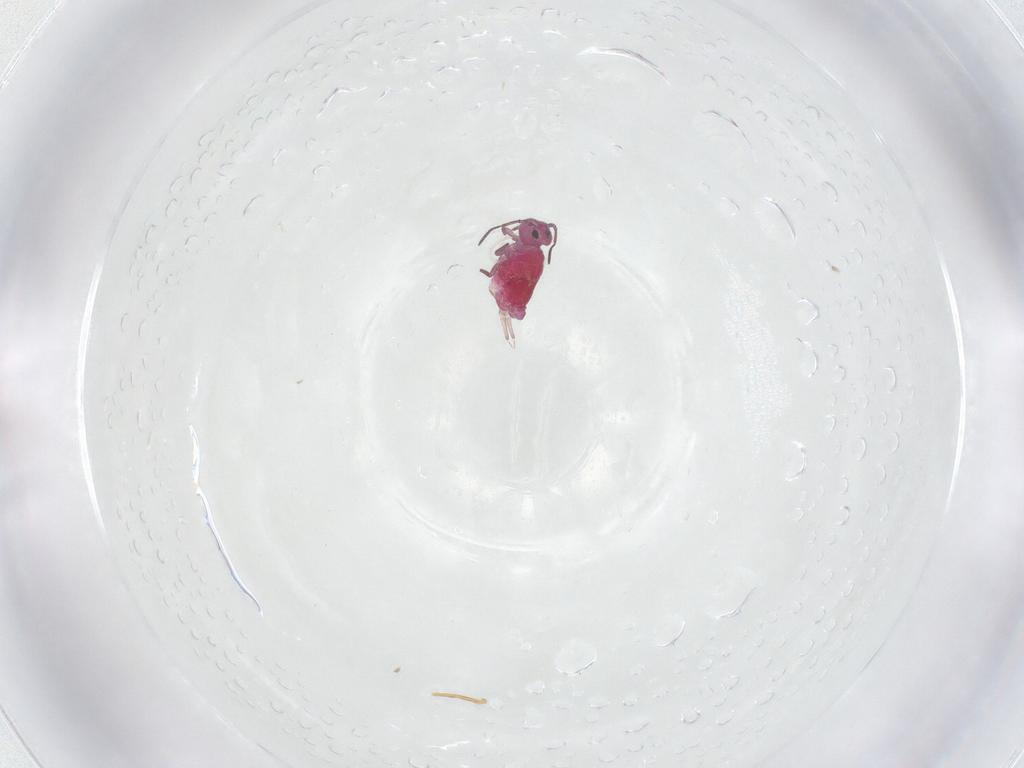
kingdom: Animalia
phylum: Arthropoda
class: Collembola
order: Symphypleona
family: Sminthuridae
